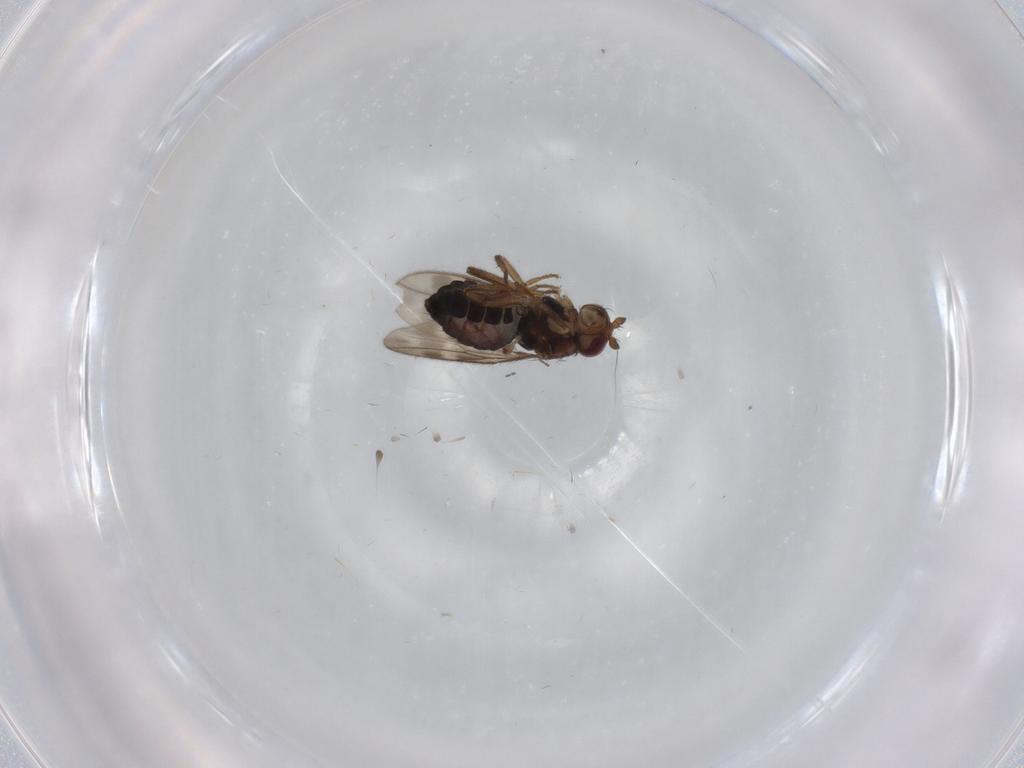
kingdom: Animalia
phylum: Arthropoda
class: Insecta
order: Diptera
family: Sphaeroceridae
